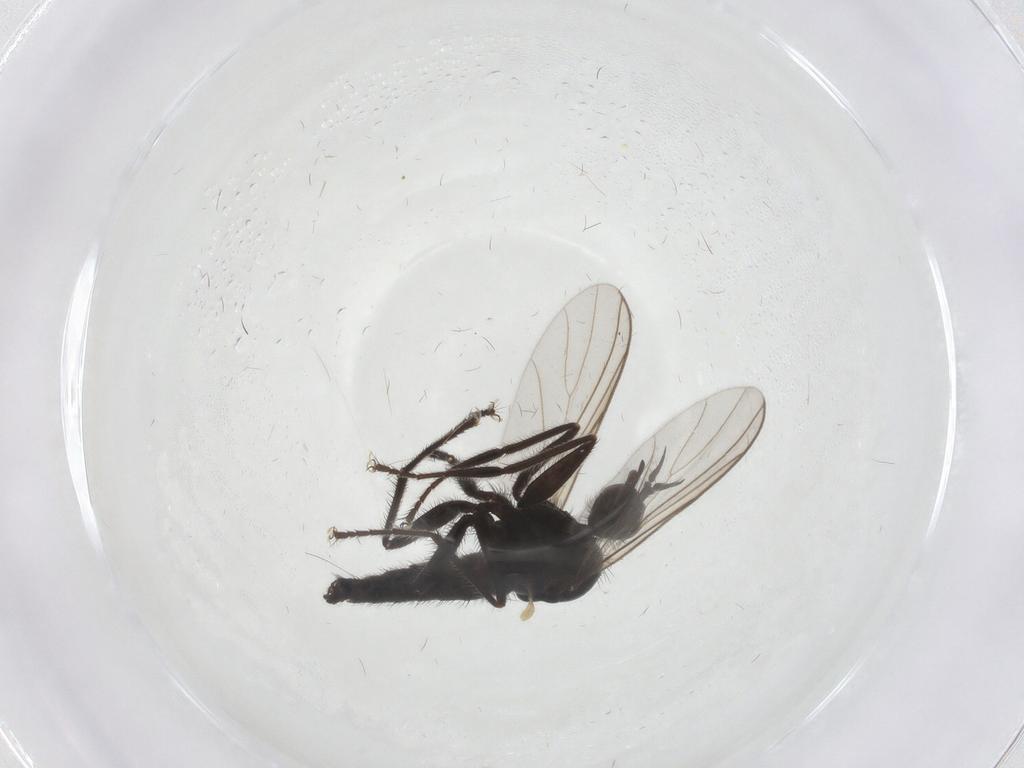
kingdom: Animalia
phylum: Arthropoda
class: Insecta
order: Diptera
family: Empididae
